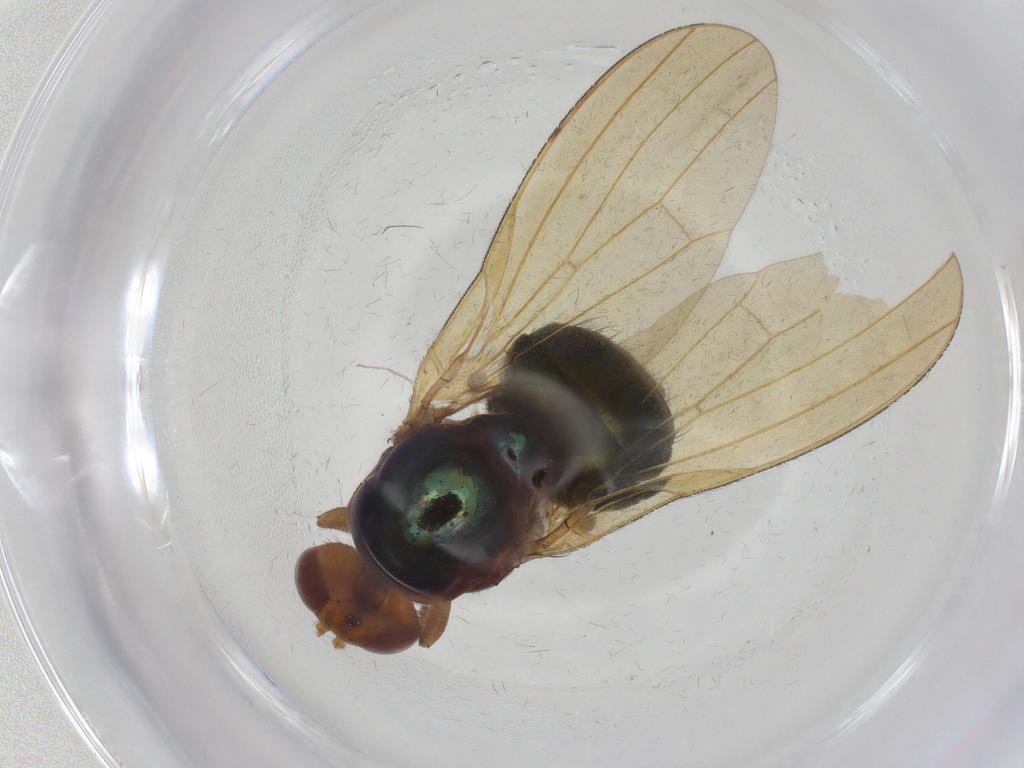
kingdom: Animalia
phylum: Arthropoda
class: Insecta
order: Diptera
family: Lauxaniidae
